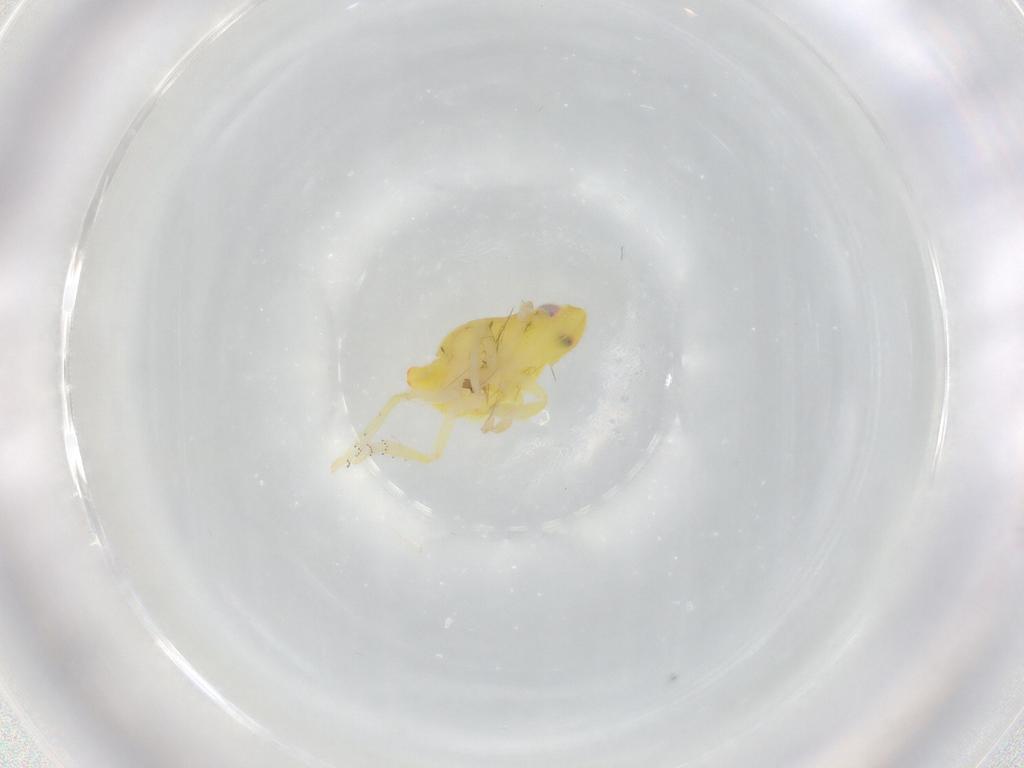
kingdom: Animalia
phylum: Arthropoda
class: Insecta
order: Hemiptera
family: Tropiduchidae
